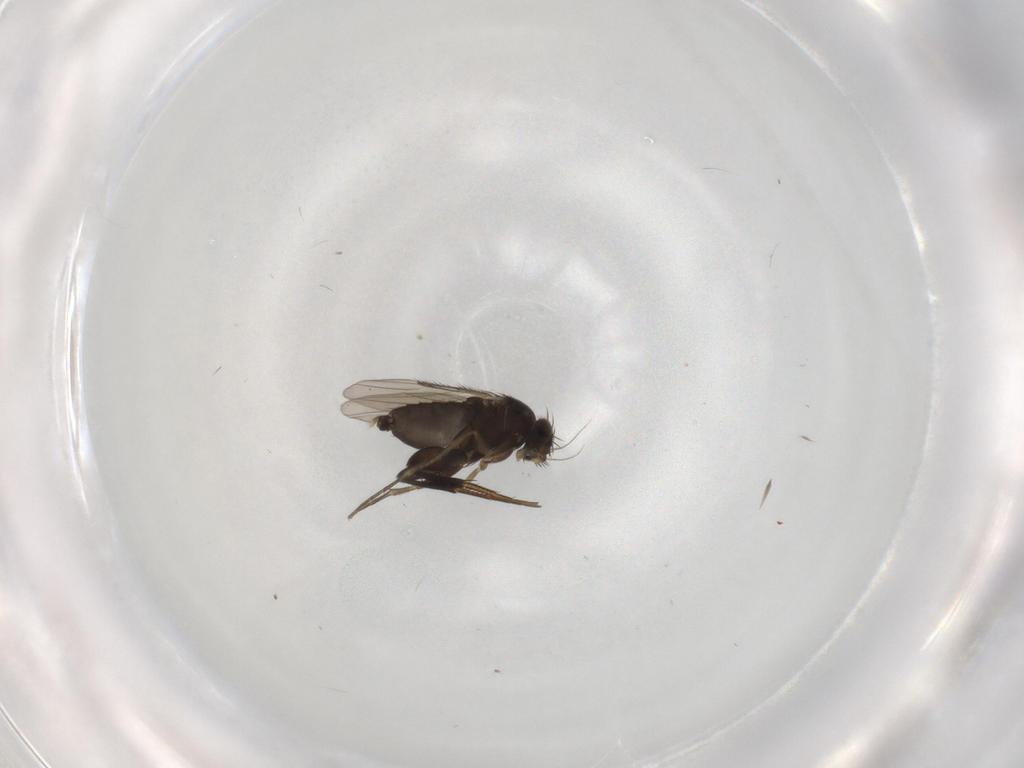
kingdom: Animalia
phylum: Arthropoda
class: Insecta
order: Diptera
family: Phoridae
